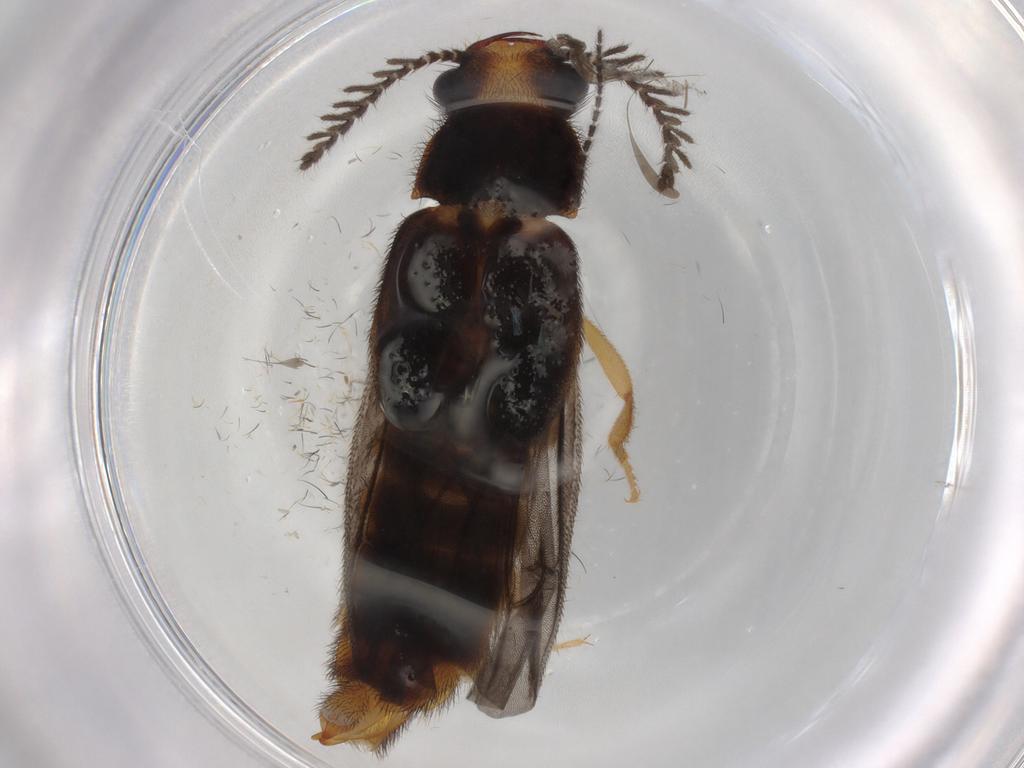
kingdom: Animalia
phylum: Arthropoda
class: Insecta
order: Coleoptera
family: Phengodidae
